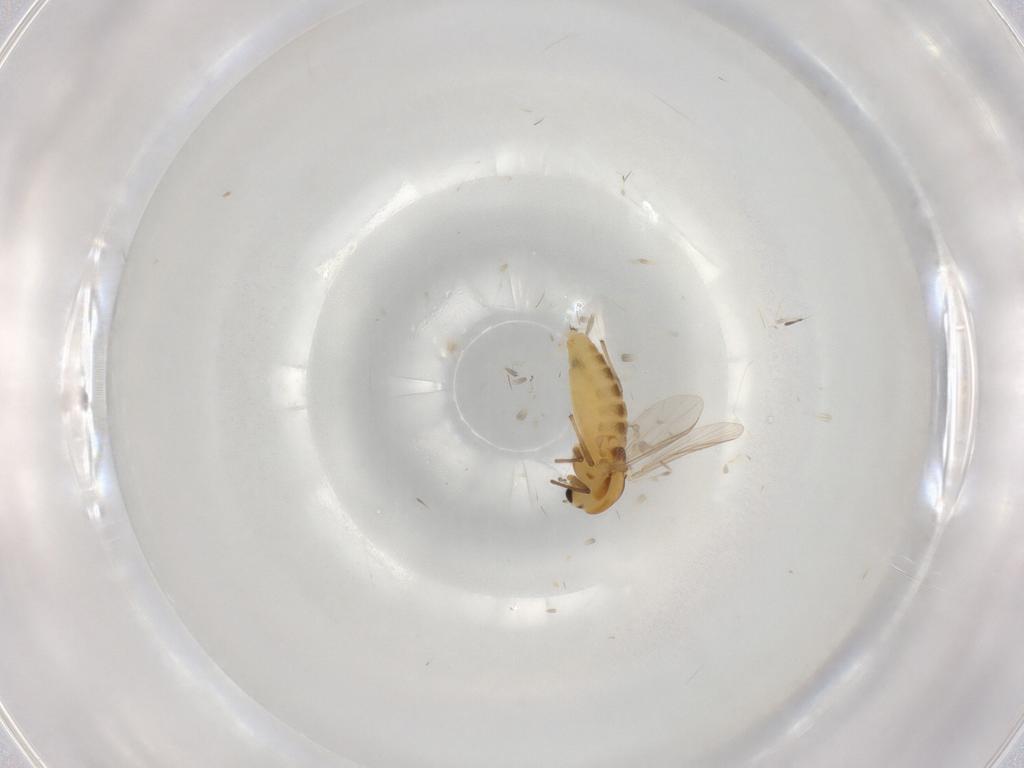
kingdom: Animalia
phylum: Arthropoda
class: Insecta
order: Diptera
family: Chironomidae
